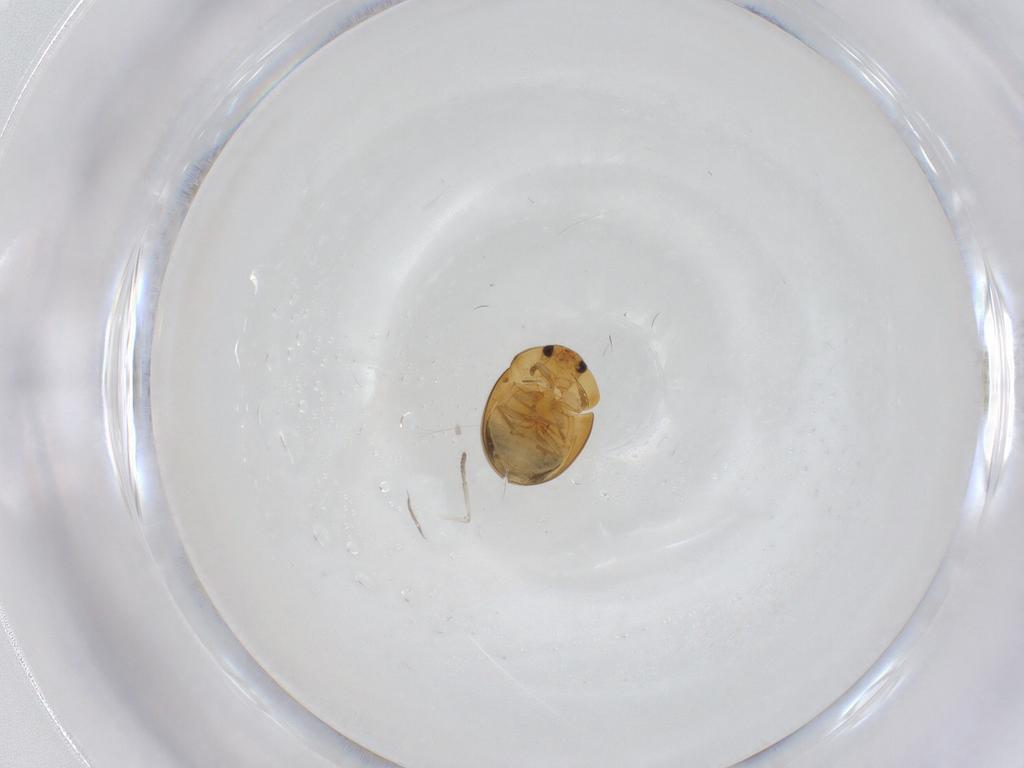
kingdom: Animalia
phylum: Arthropoda
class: Insecta
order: Coleoptera
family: Phalacridae
